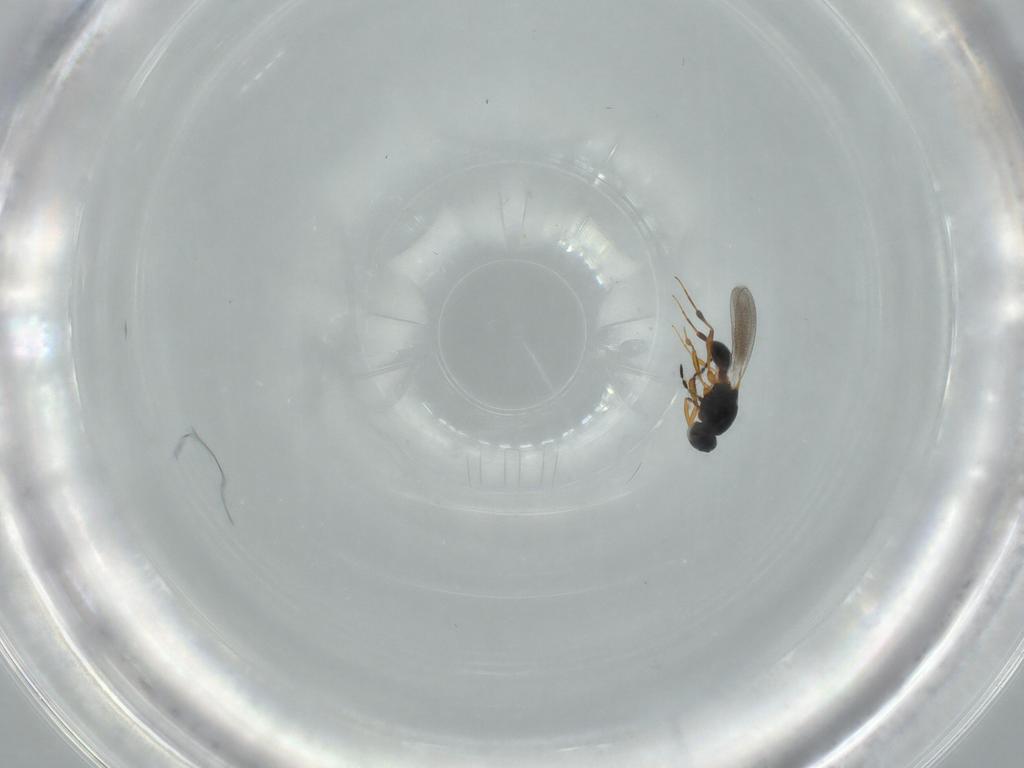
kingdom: Animalia
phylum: Arthropoda
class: Insecta
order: Hymenoptera
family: Platygastridae
